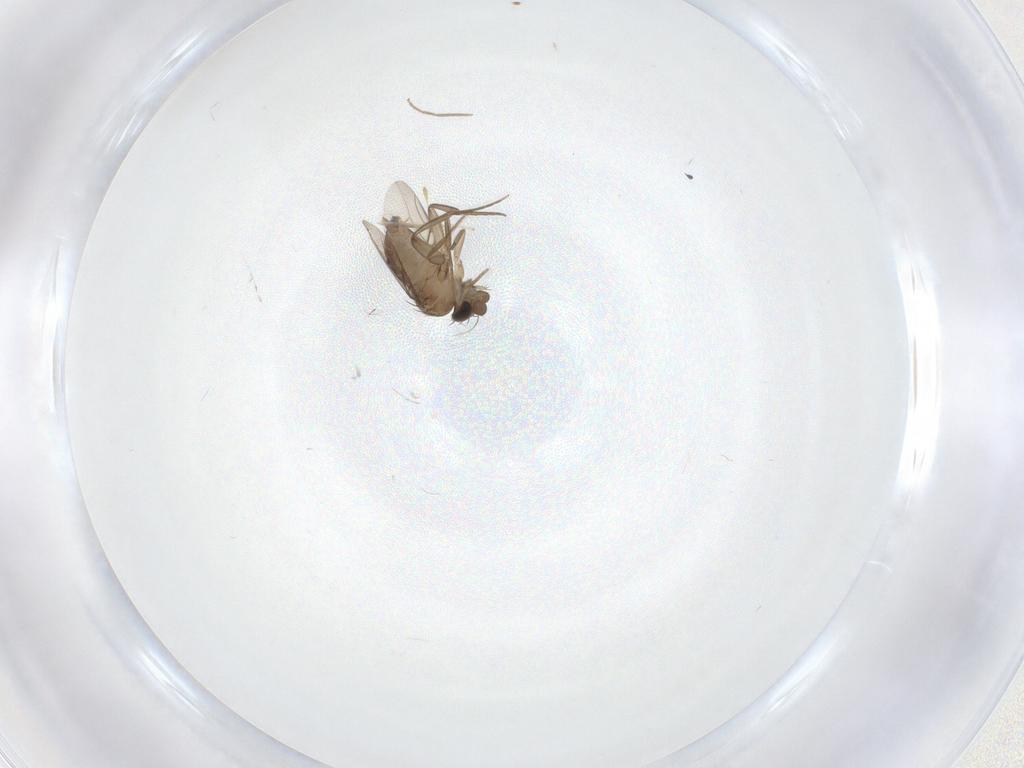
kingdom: Animalia
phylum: Arthropoda
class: Insecta
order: Diptera
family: Phoridae
